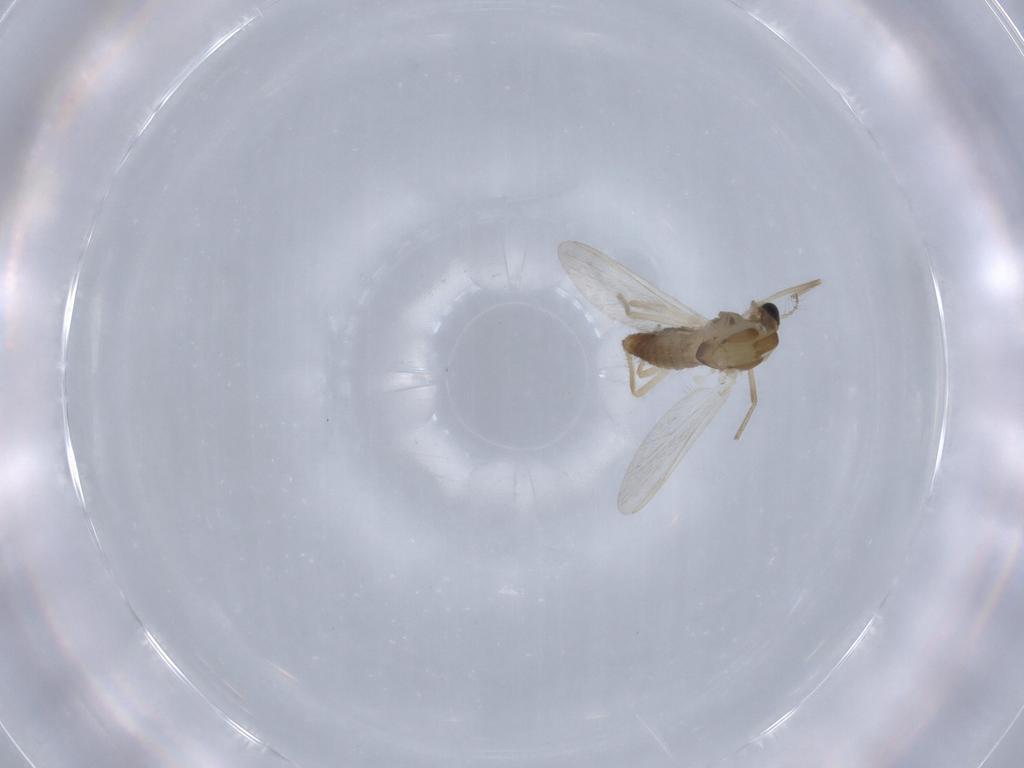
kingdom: Animalia
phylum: Arthropoda
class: Insecta
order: Diptera
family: Chironomidae
